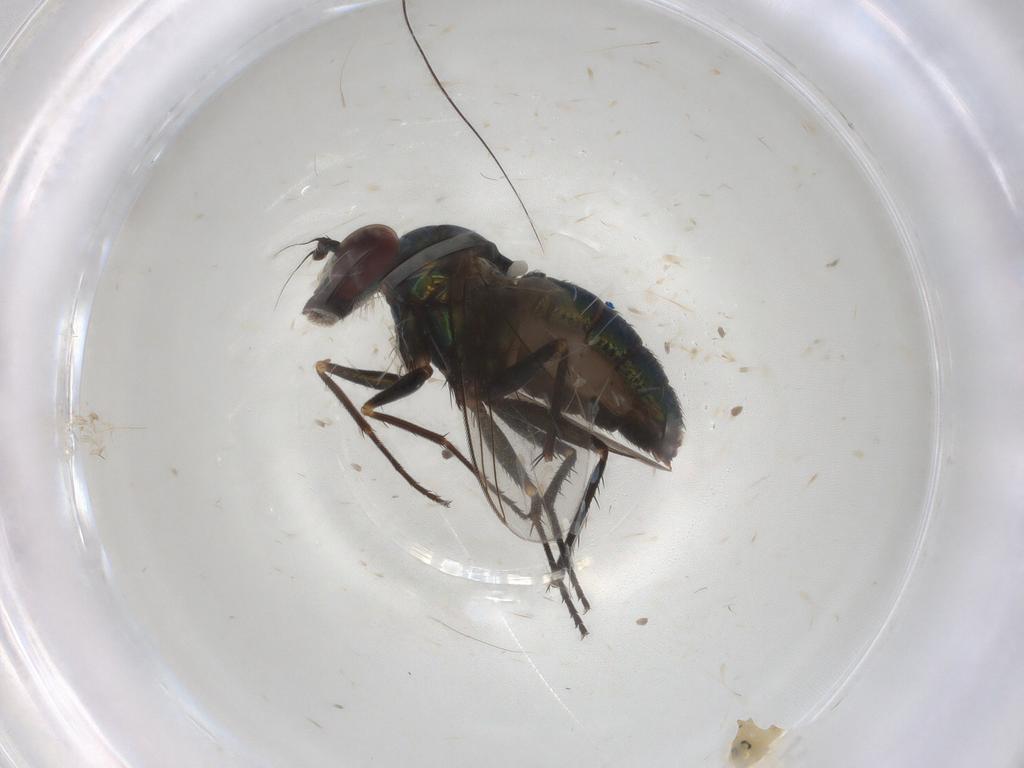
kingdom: Animalia
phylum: Arthropoda
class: Insecta
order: Diptera
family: Dolichopodidae
